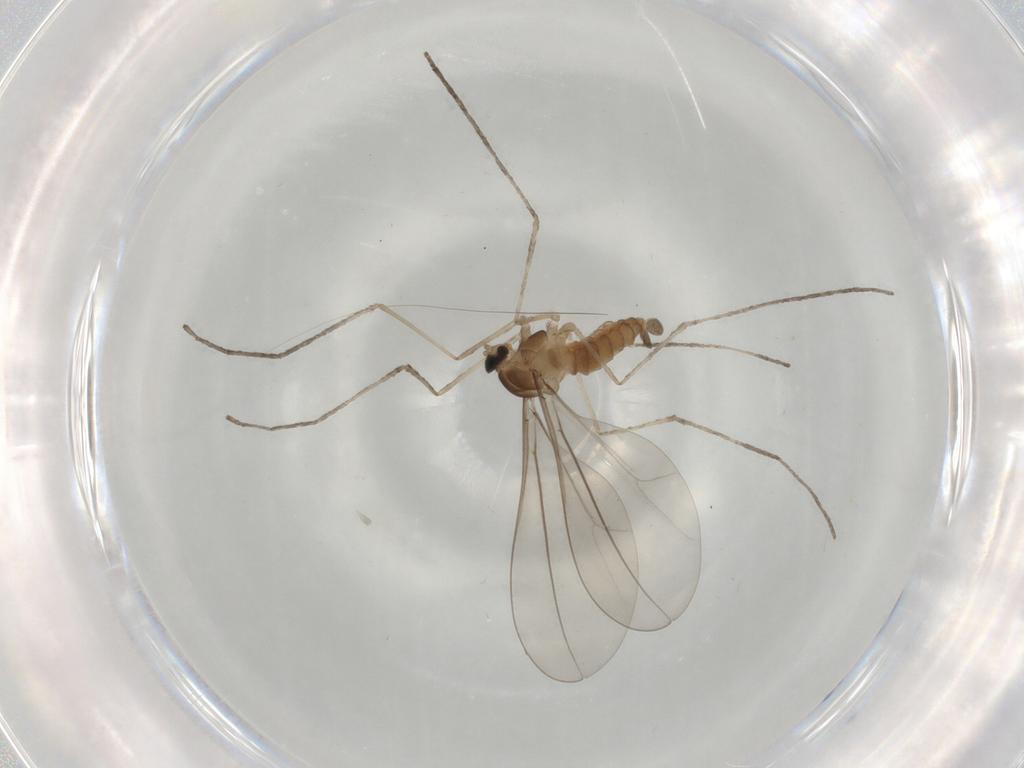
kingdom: Animalia
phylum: Arthropoda
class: Insecta
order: Diptera
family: Cecidomyiidae
